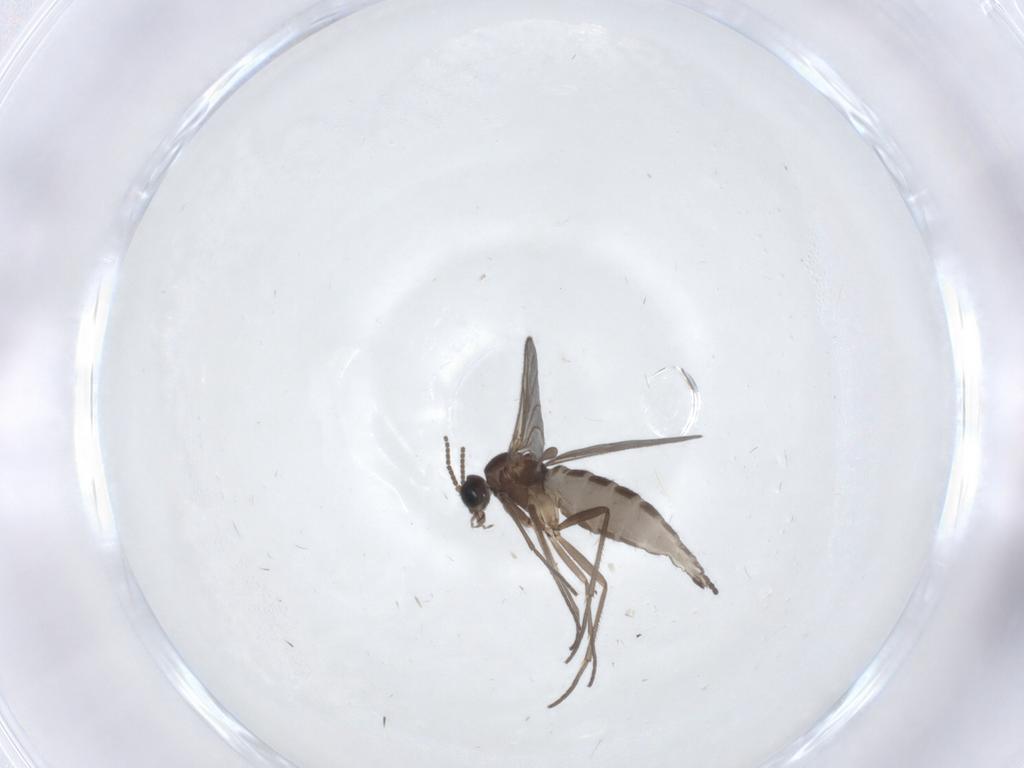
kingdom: Animalia
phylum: Arthropoda
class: Insecta
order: Diptera
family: Sciaridae
